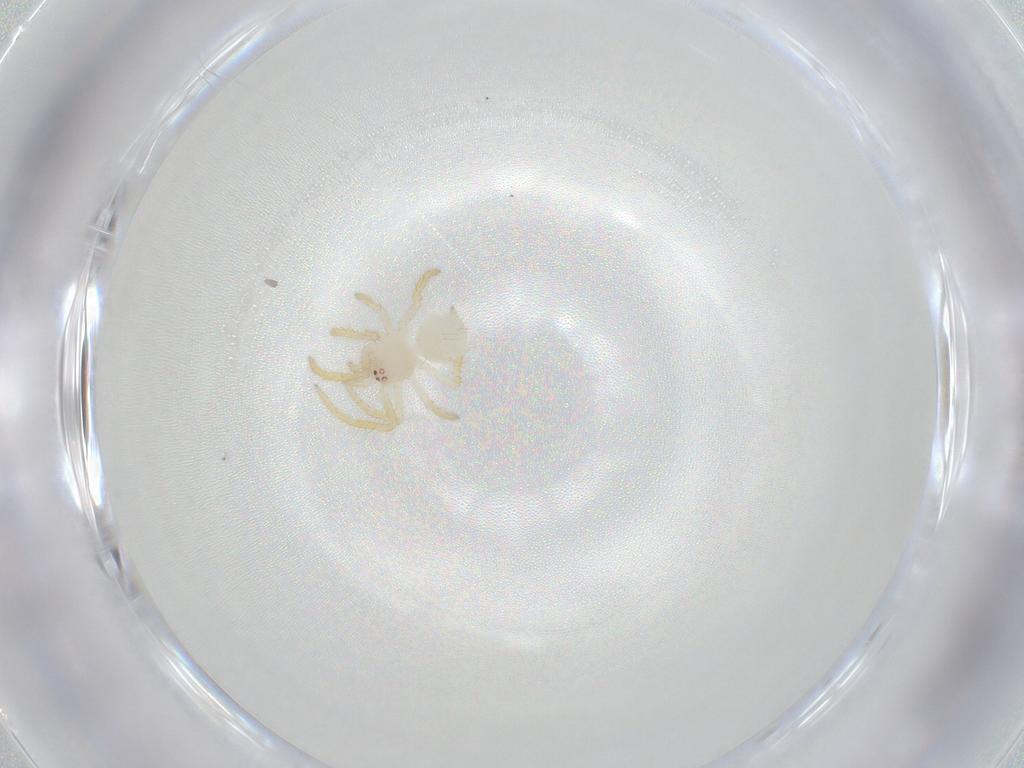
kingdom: Animalia
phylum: Arthropoda
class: Arachnida
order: Araneae
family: Theridiidae
